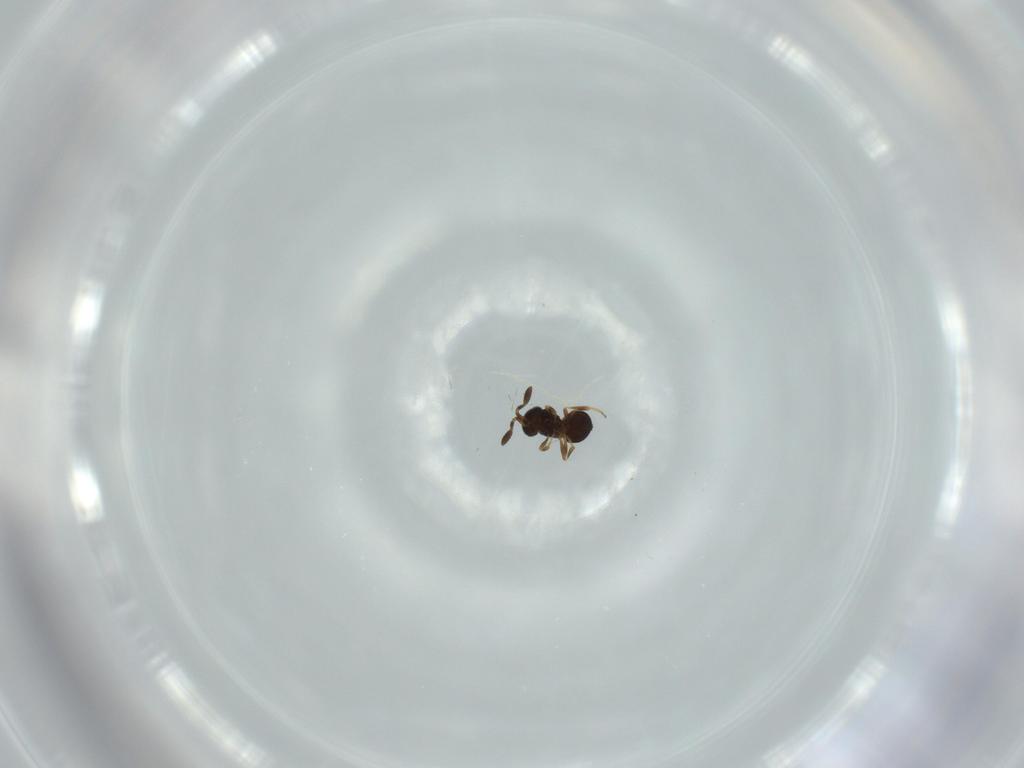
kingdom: Animalia
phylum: Arthropoda
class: Insecta
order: Hymenoptera
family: Scelionidae
